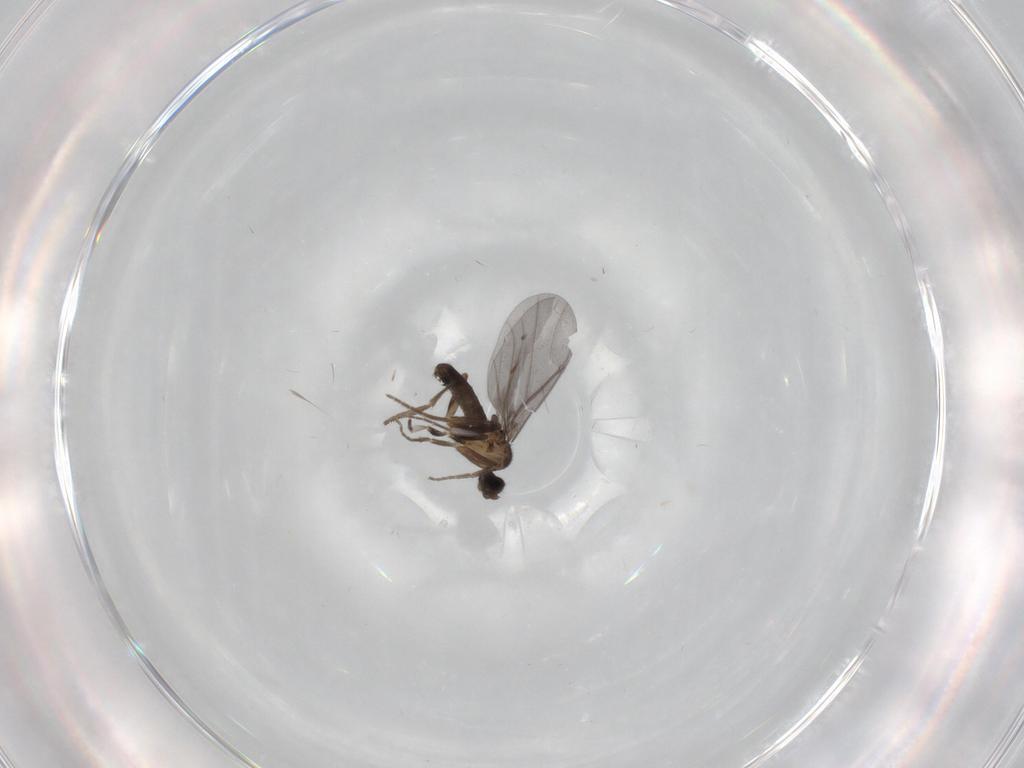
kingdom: Animalia
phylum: Arthropoda
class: Insecta
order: Diptera
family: Phoridae
